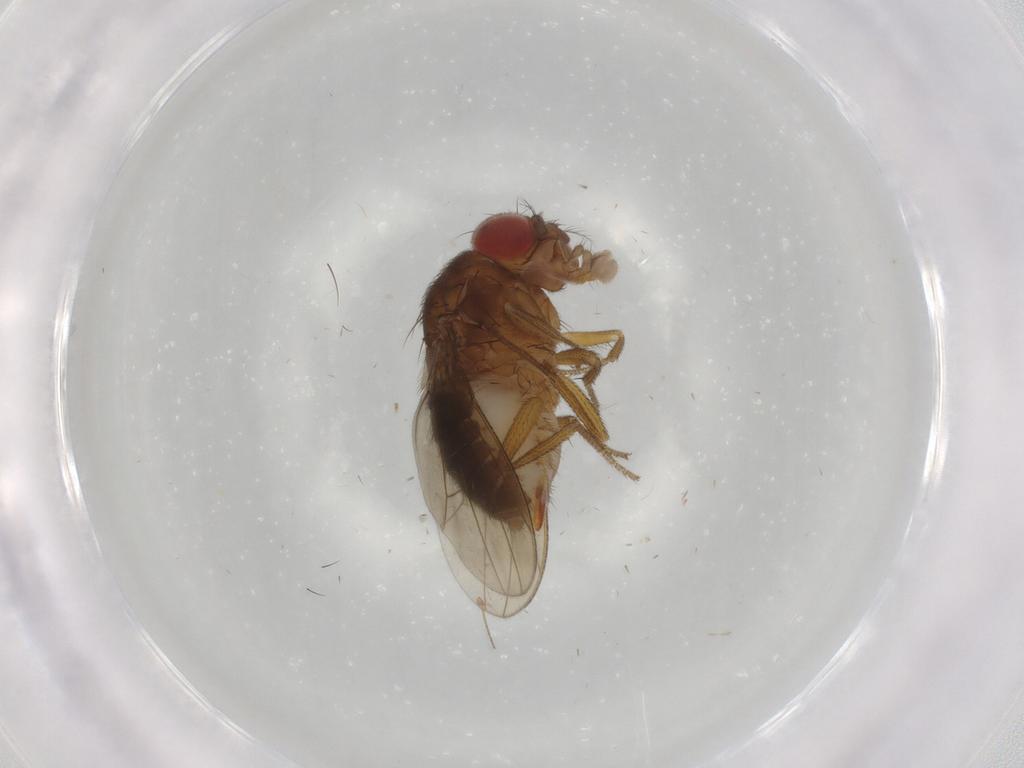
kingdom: Animalia
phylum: Arthropoda
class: Insecta
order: Diptera
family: Drosophilidae
